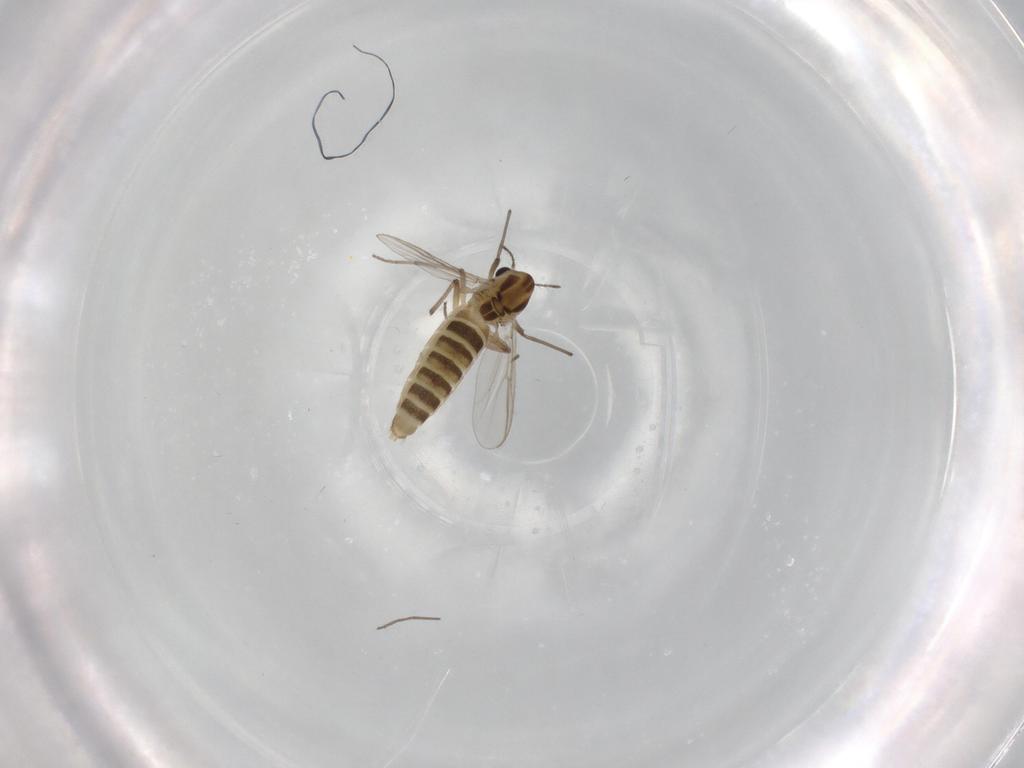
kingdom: Animalia
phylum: Arthropoda
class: Insecta
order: Diptera
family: Chironomidae
